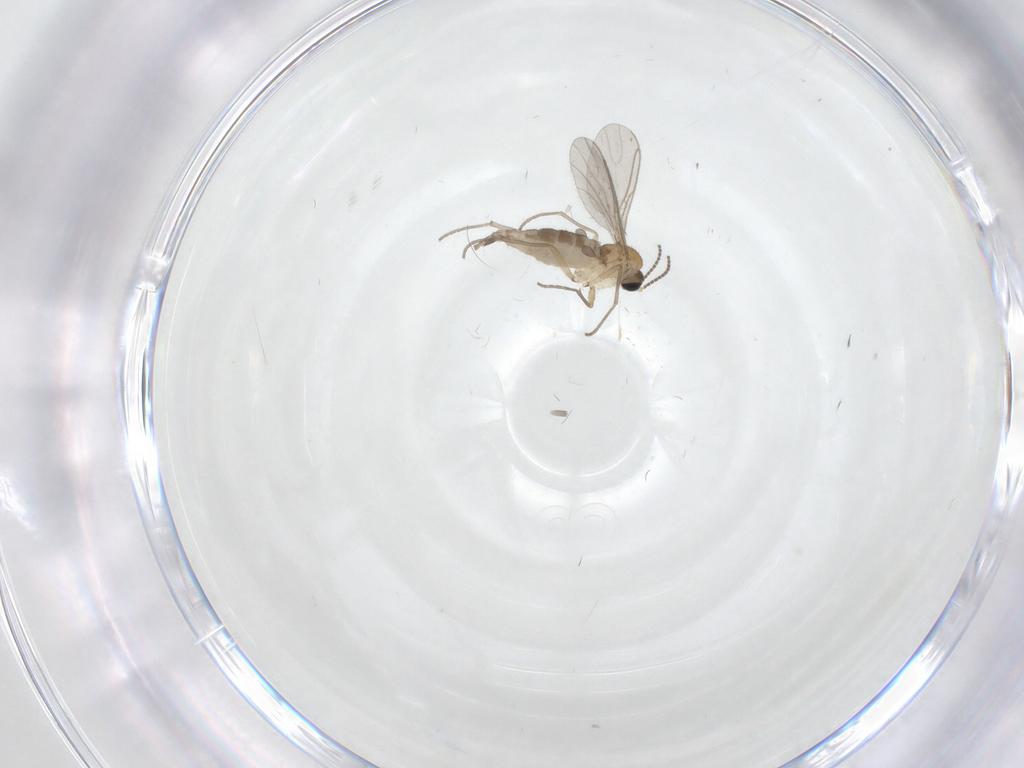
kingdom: Animalia
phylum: Arthropoda
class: Insecta
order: Diptera
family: Sciaridae
